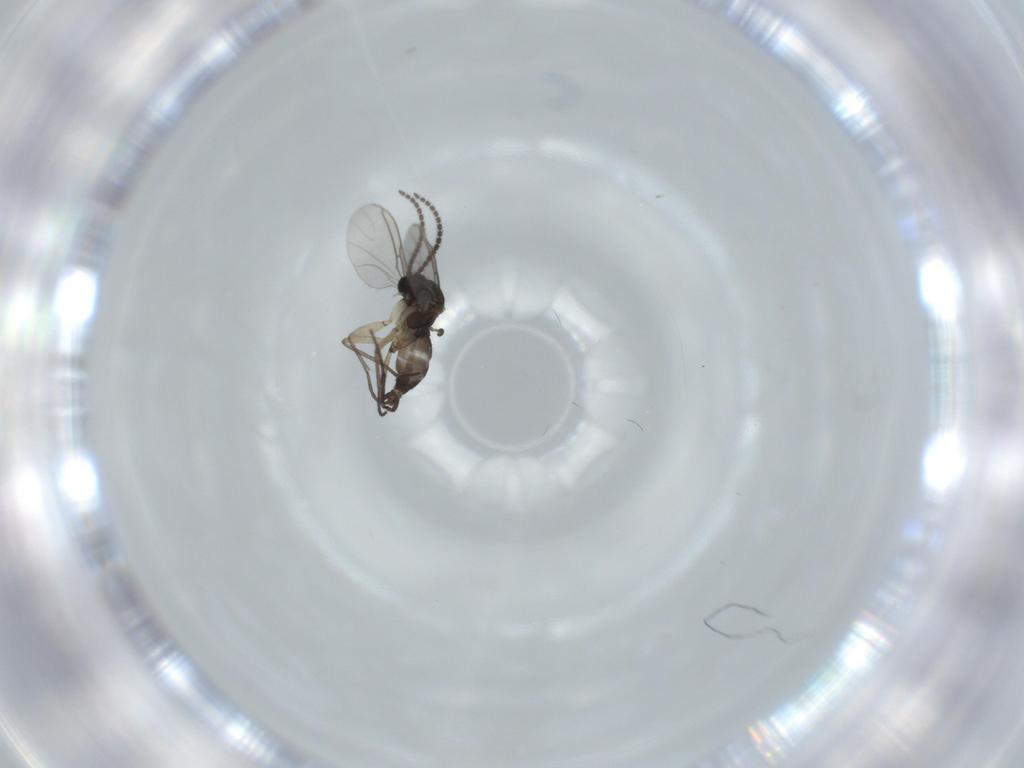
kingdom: Animalia
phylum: Arthropoda
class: Insecta
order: Diptera
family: Sciaridae
